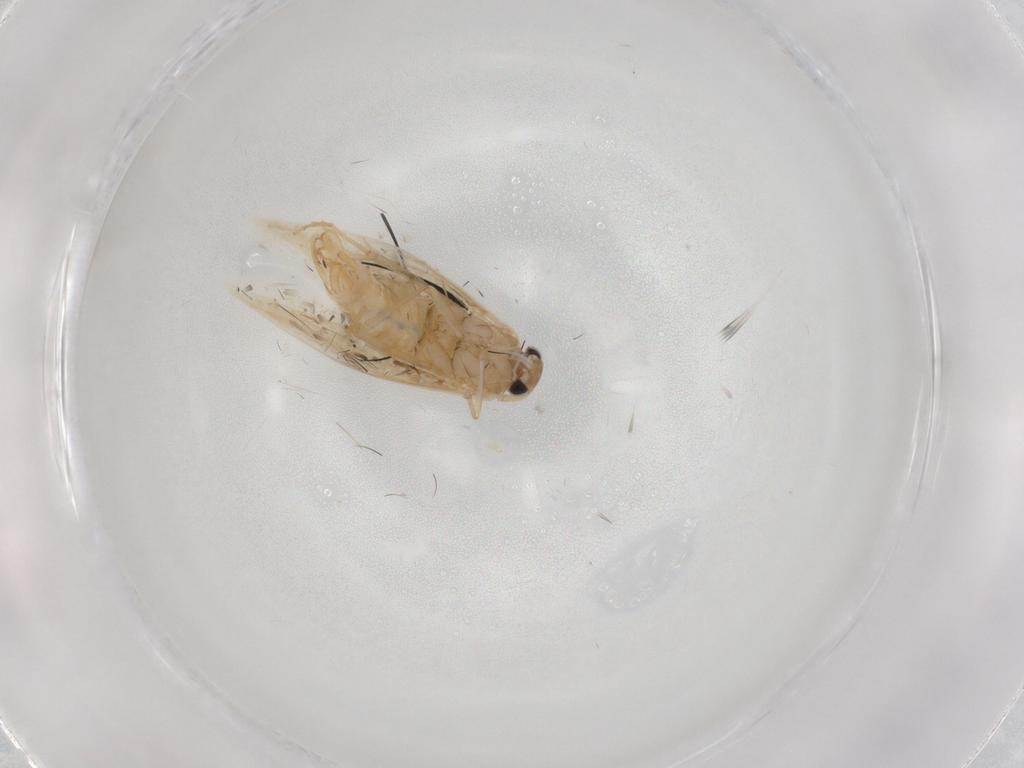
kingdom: Animalia
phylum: Arthropoda
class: Insecta
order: Lepidoptera
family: Bucculatricidae
